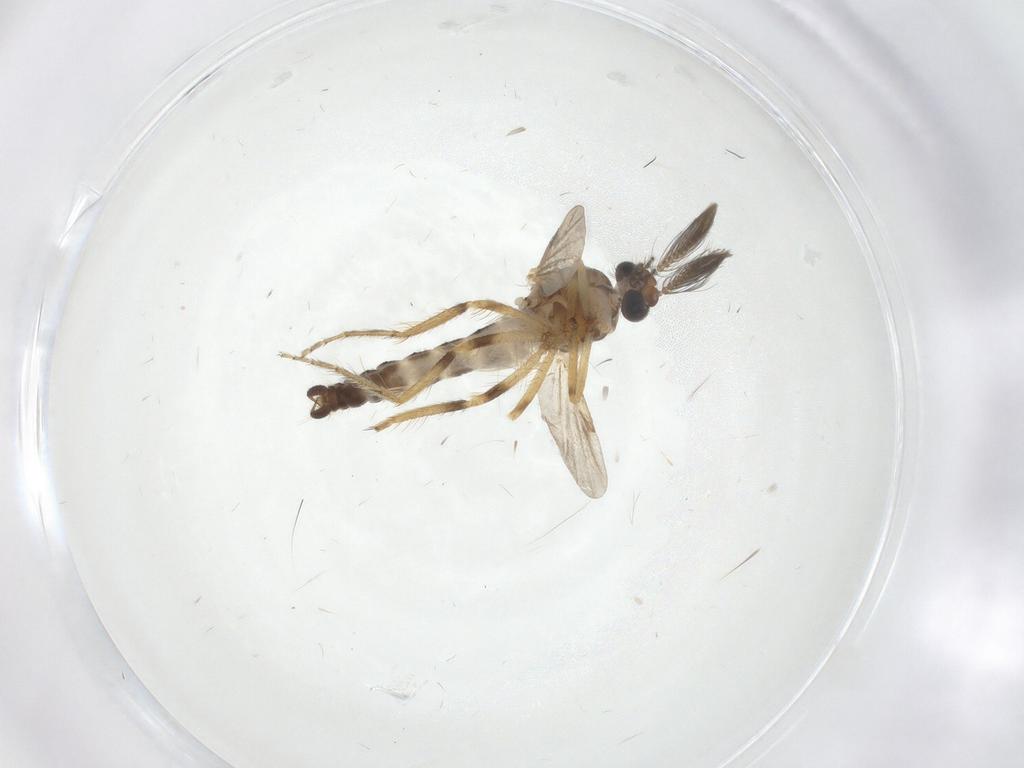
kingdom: Animalia
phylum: Arthropoda
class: Insecta
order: Diptera
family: Ceratopogonidae
